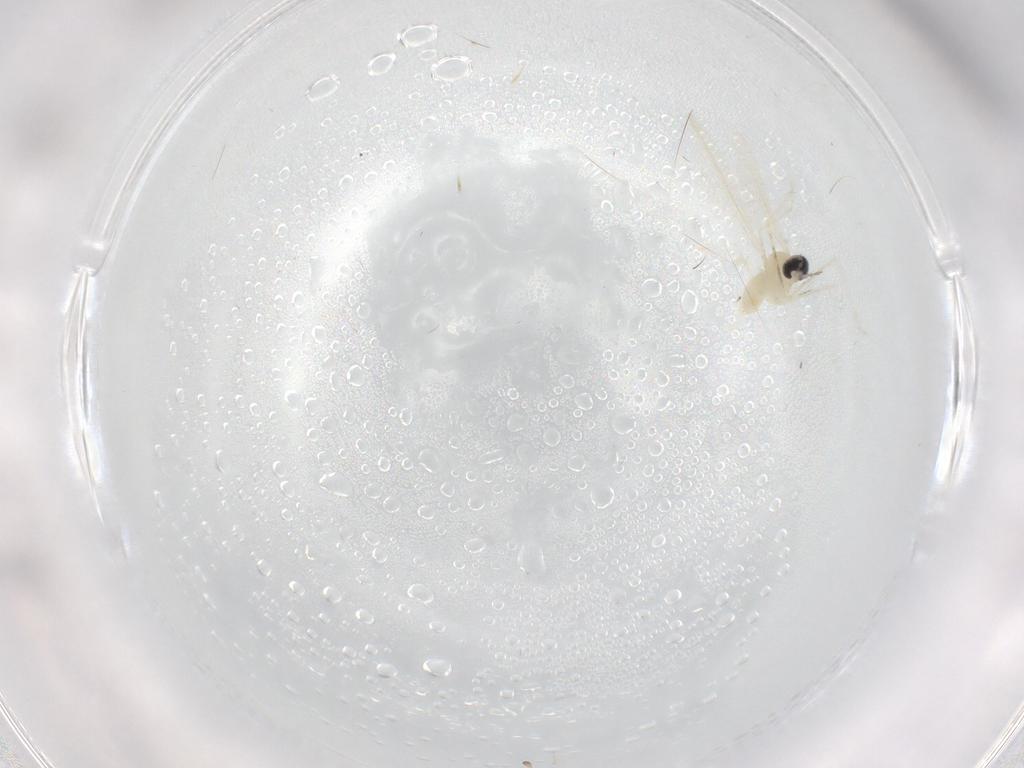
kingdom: Animalia
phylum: Arthropoda
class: Insecta
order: Diptera
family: Cecidomyiidae
